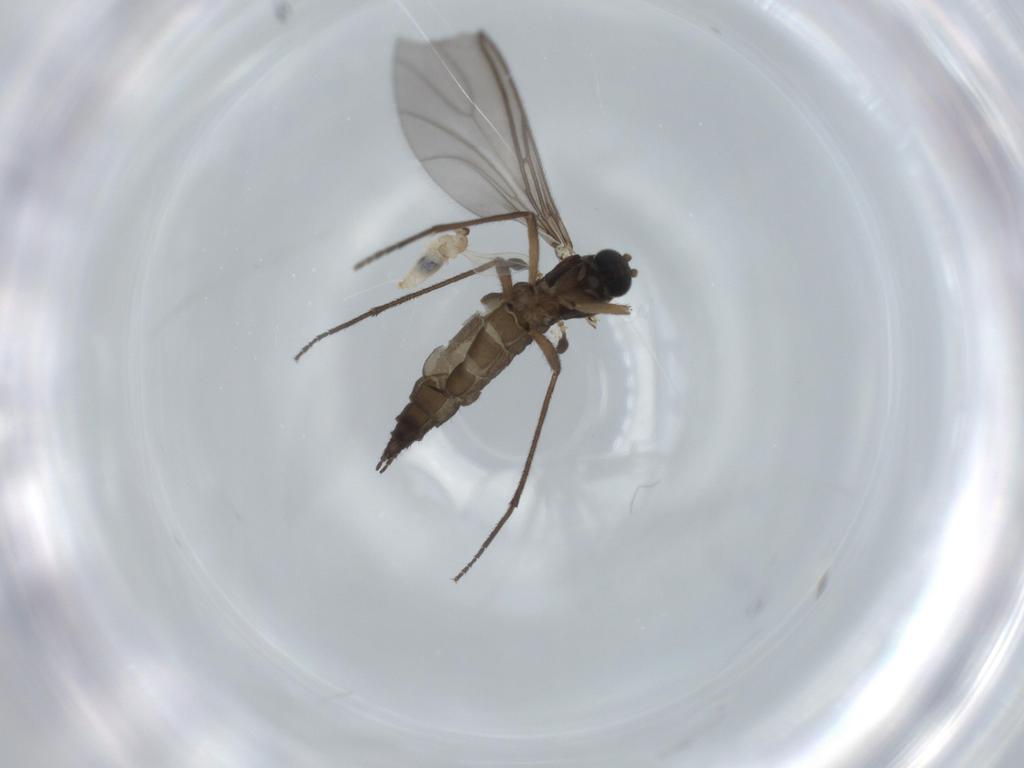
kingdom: Animalia
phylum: Arthropoda
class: Insecta
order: Diptera
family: Sciaridae
